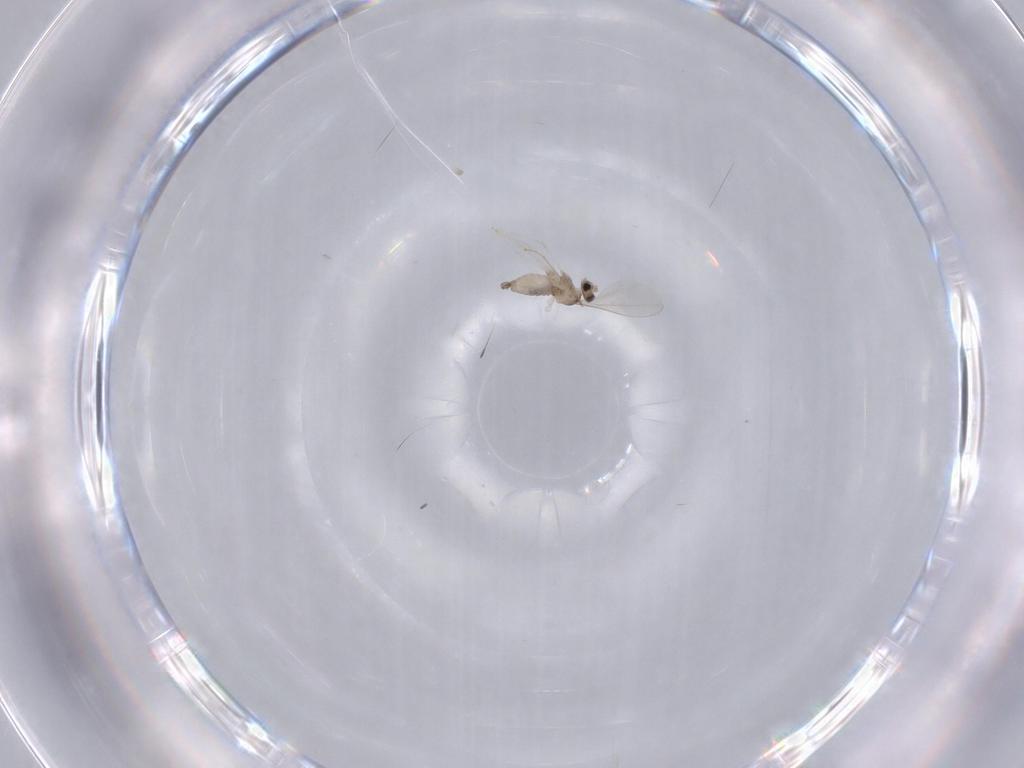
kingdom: Animalia
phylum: Arthropoda
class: Insecta
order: Diptera
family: Cecidomyiidae
